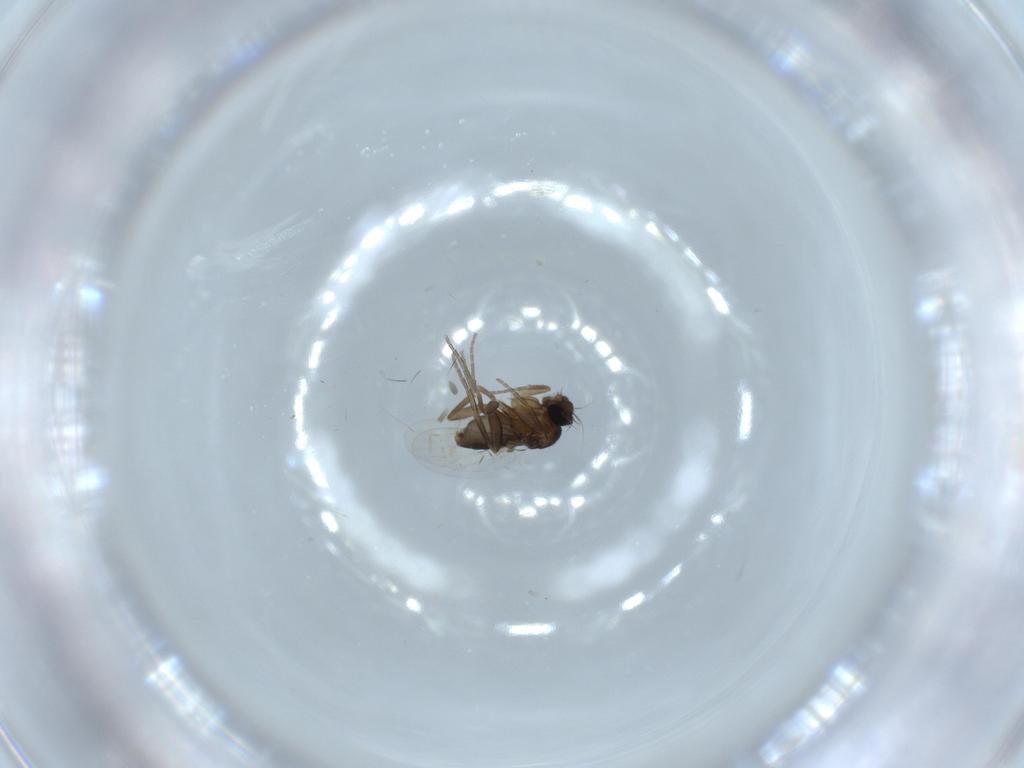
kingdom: Animalia
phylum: Arthropoda
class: Insecta
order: Diptera
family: Phoridae
